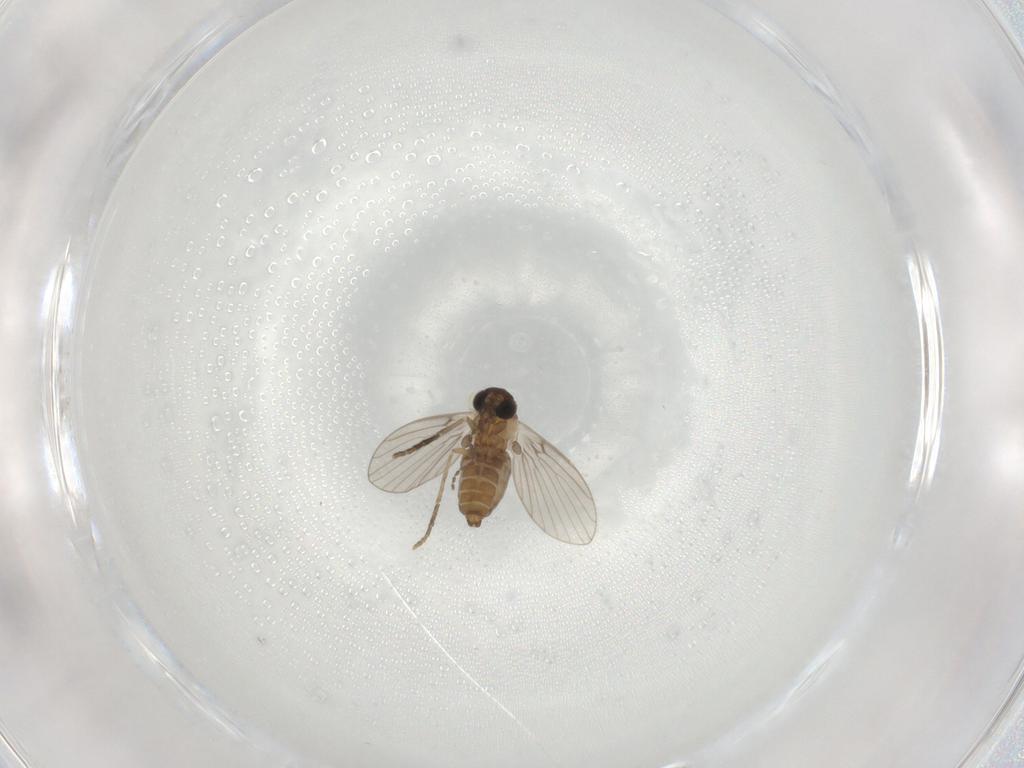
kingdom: Animalia
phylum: Arthropoda
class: Insecta
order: Diptera
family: Psychodidae
